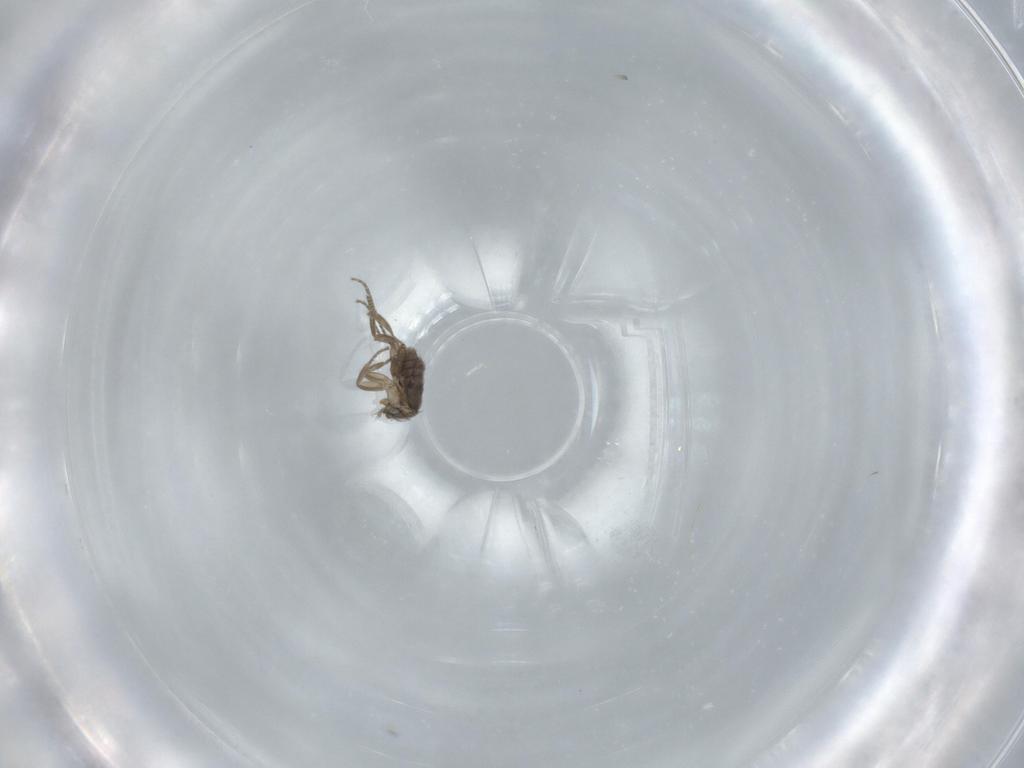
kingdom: Animalia
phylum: Arthropoda
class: Insecta
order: Diptera
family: Phoridae
